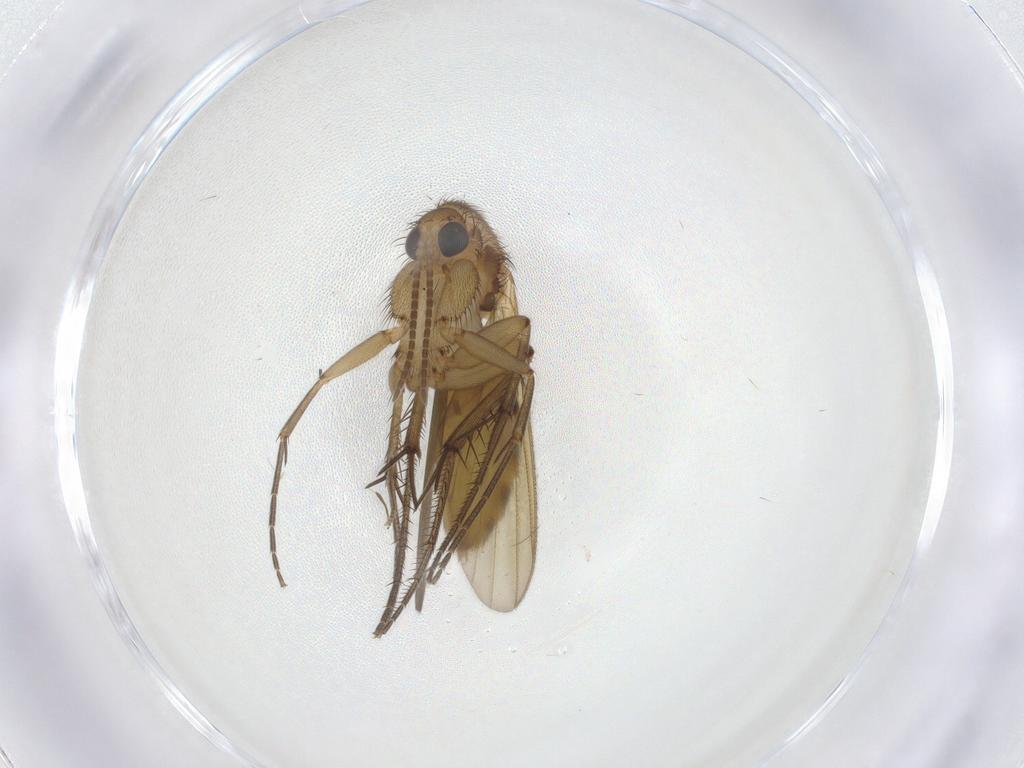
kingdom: Animalia
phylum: Arthropoda
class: Insecta
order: Diptera
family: Mycetophilidae
